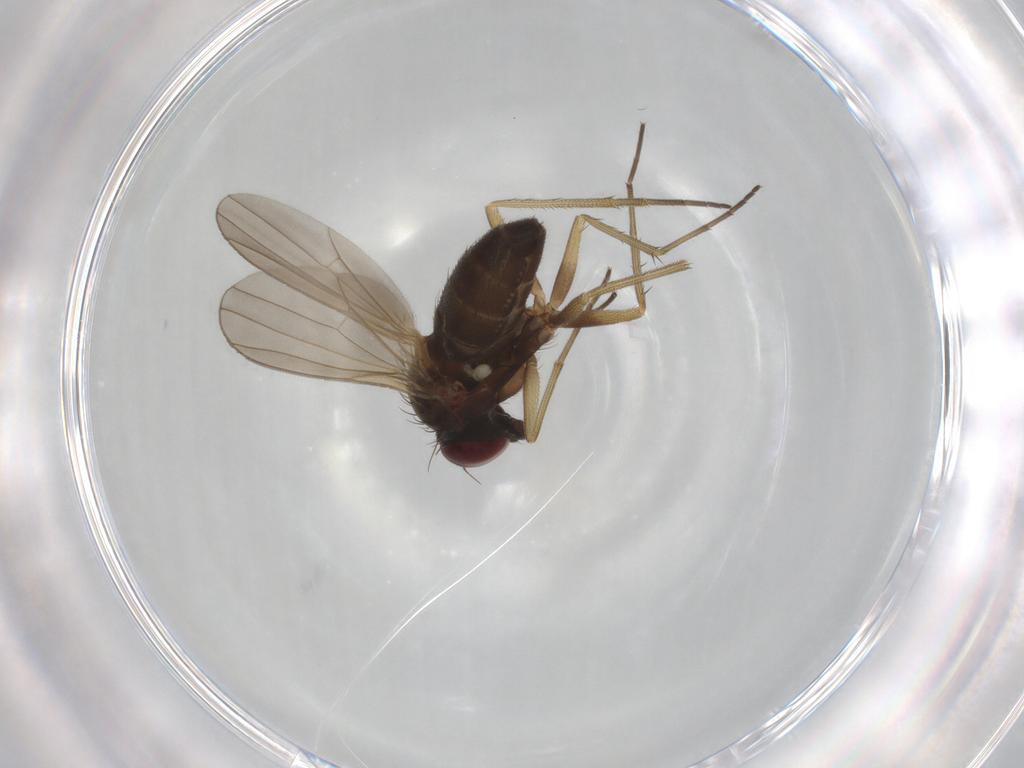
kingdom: Animalia
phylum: Arthropoda
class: Insecta
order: Diptera
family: Dolichopodidae
